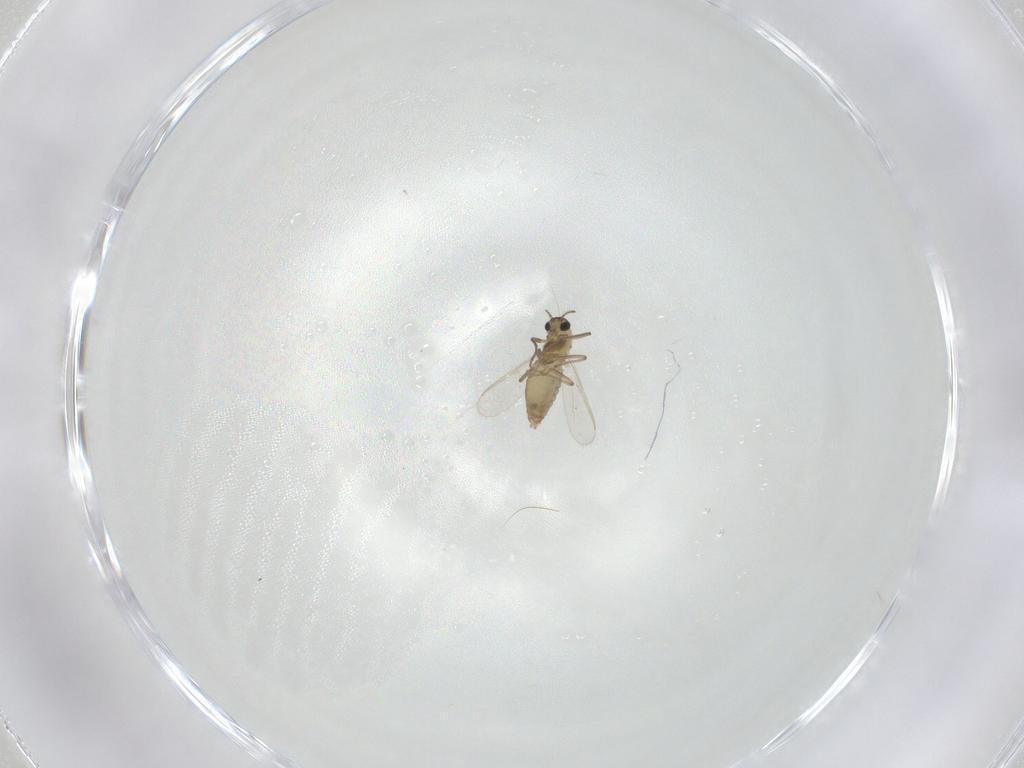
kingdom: Animalia
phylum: Arthropoda
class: Insecta
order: Diptera
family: Chironomidae
